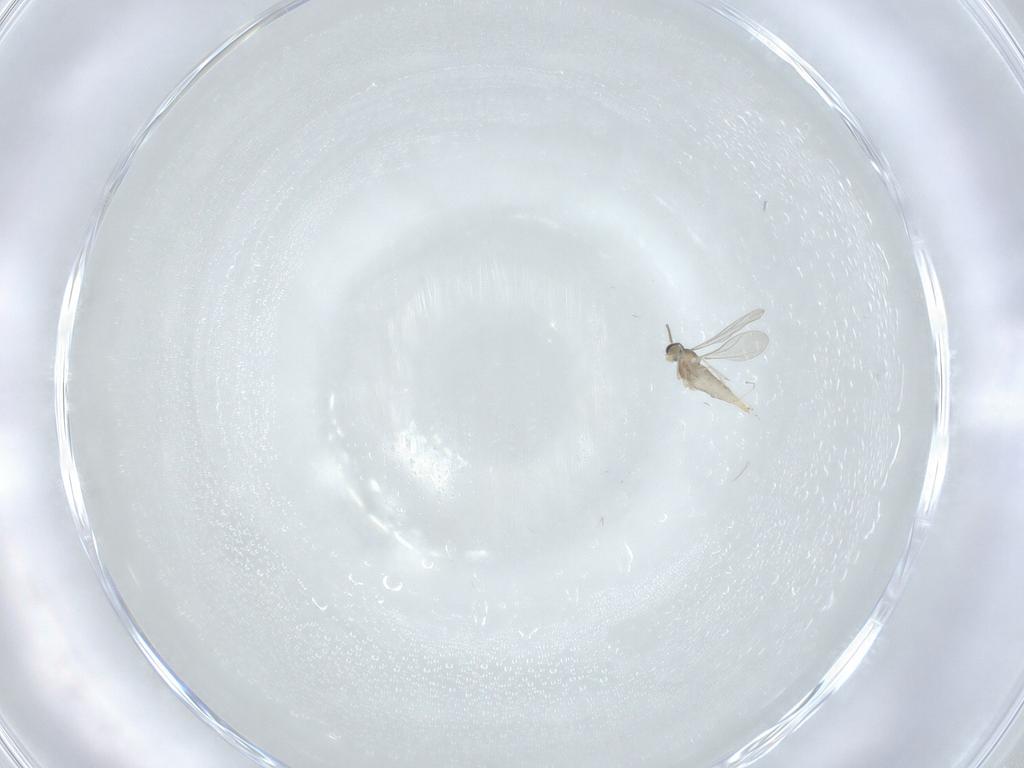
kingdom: Animalia
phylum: Arthropoda
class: Insecta
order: Diptera
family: Cecidomyiidae
